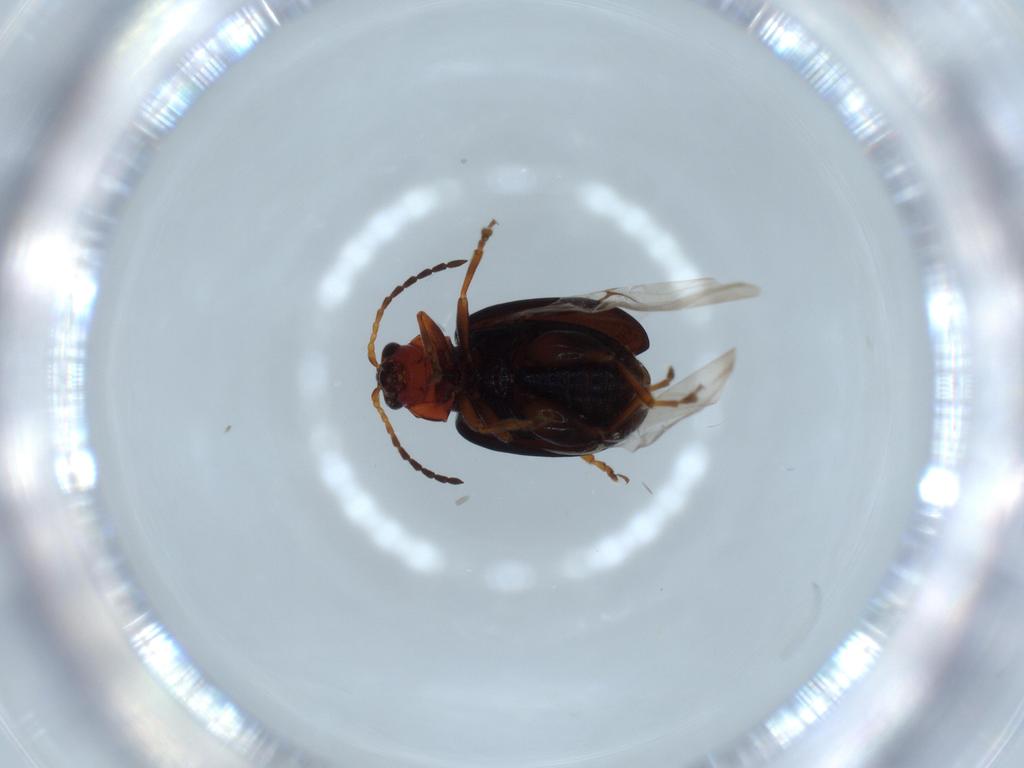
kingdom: Animalia
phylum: Arthropoda
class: Insecta
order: Coleoptera
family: Chrysomelidae
